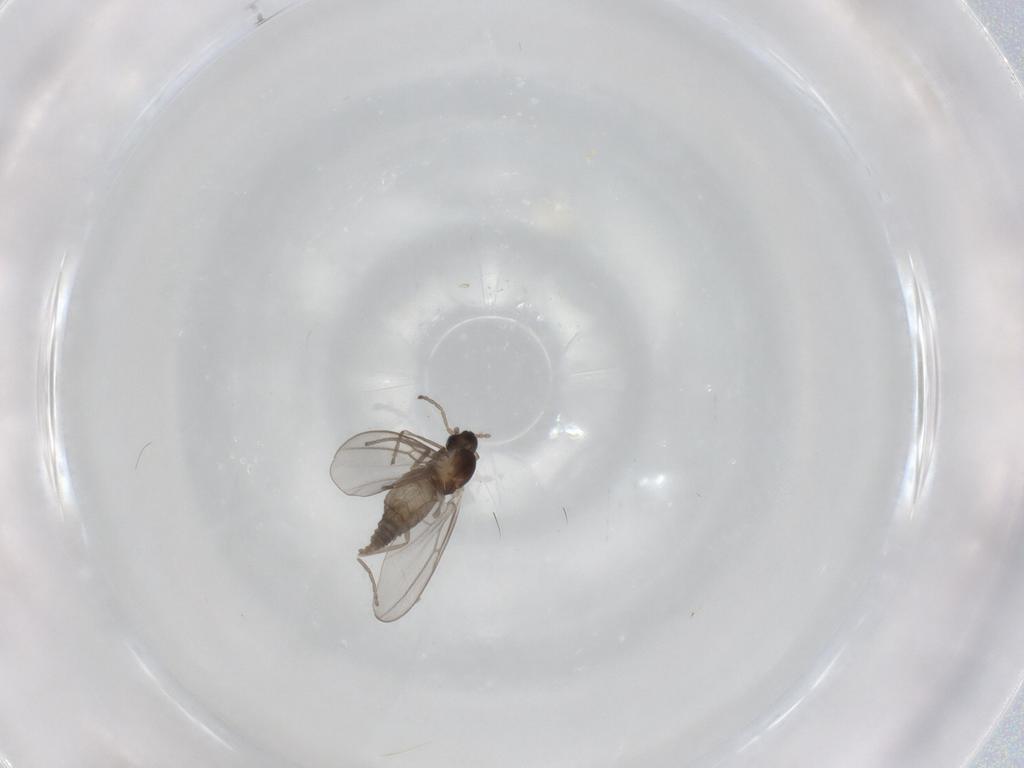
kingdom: Animalia
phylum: Arthropoda
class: Insecta
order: Diptera
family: Cecidomyiidae
